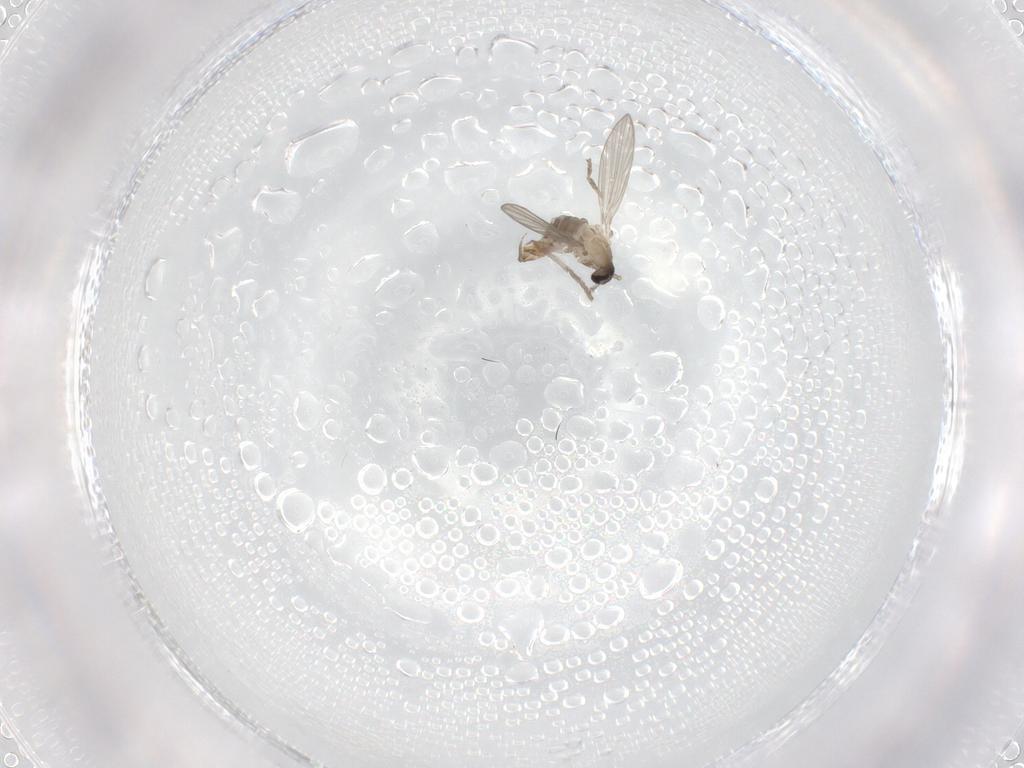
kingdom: Animalia
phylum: Arthropoda
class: Insecta
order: Diptera
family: Psychodidae
